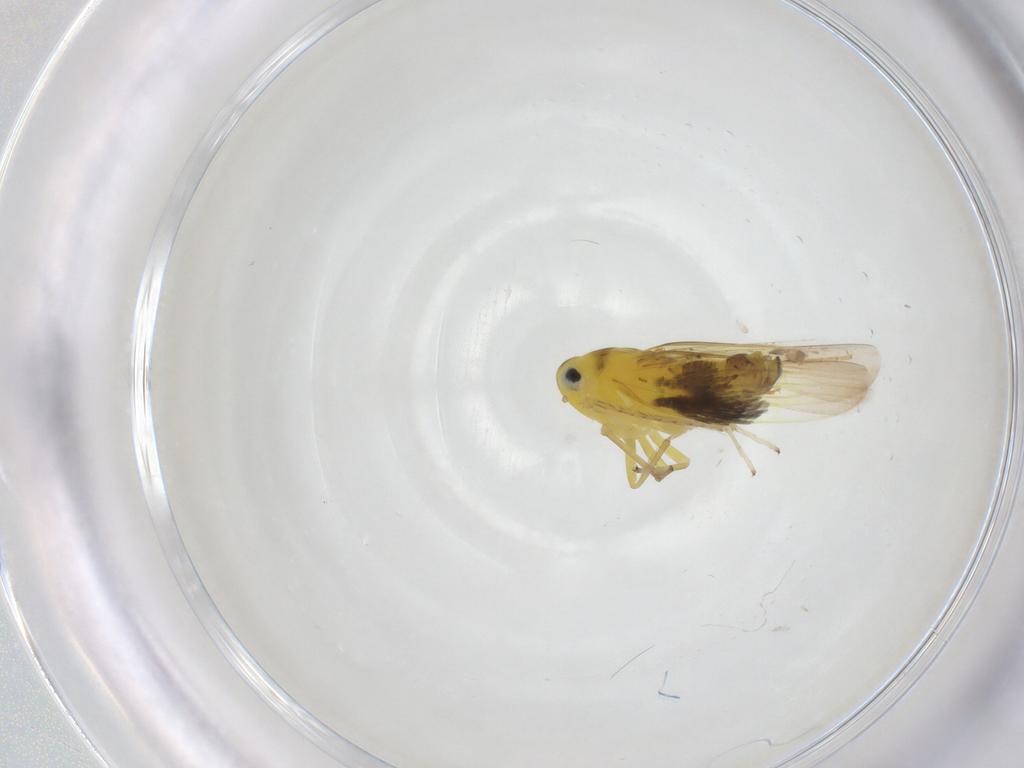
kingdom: Animalia
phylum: Arthropoda
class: Insecta
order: Hemiptera
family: Cicadellidae
